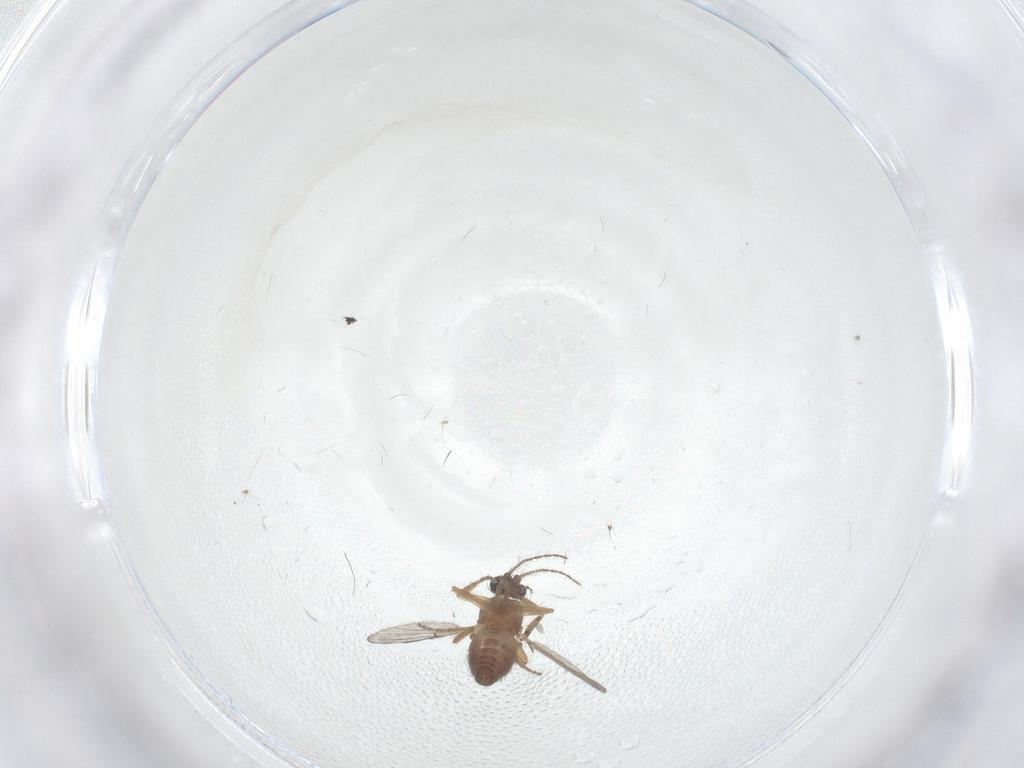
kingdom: Animalia
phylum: Arthropoda
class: Insecta
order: Diptera
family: Ceratopogonidae
